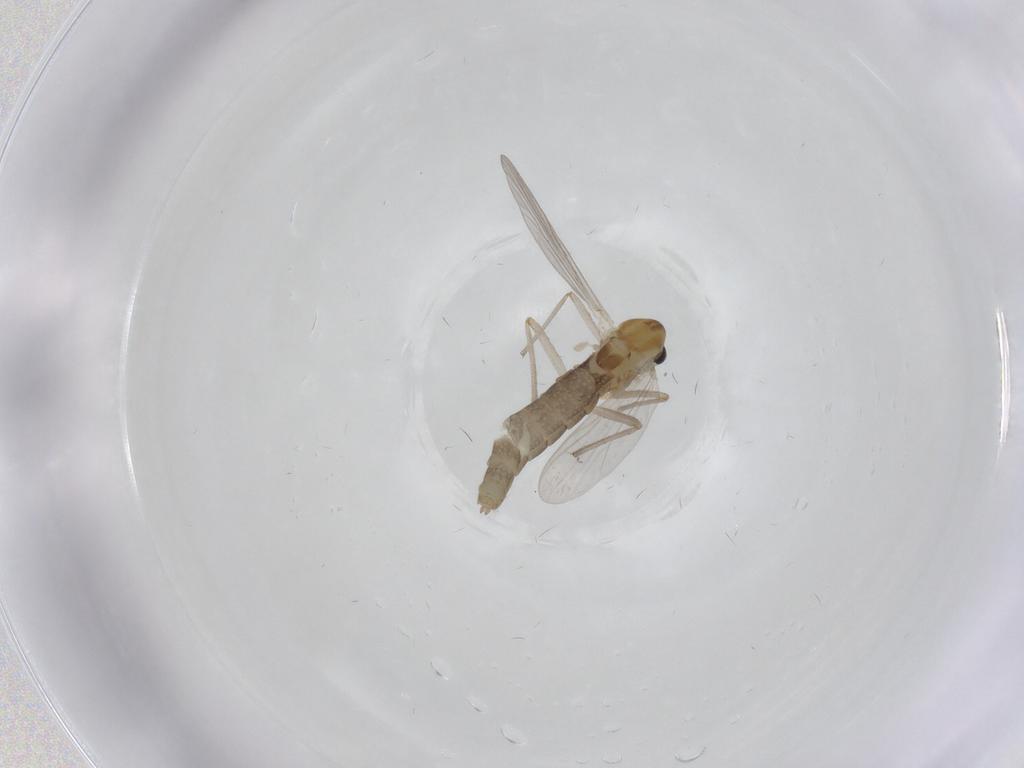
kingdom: Animalia
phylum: Arthropoda
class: Insecta
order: Diptera
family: Chironomidae
